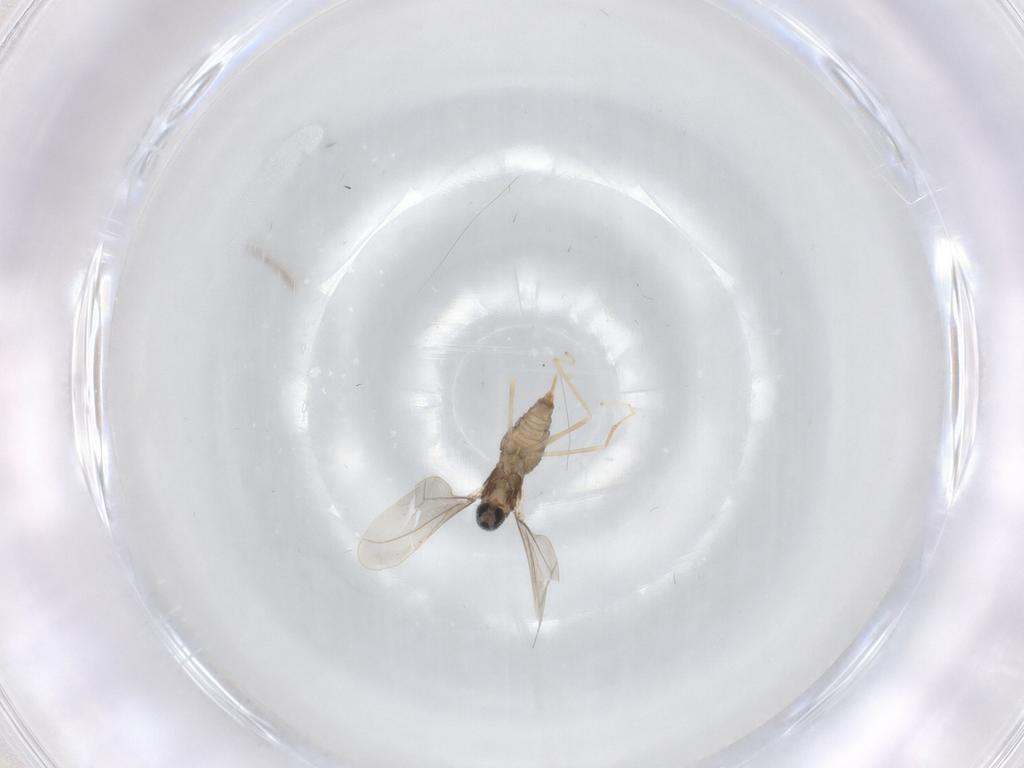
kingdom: Animalia
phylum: Arthropoda
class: Insecta
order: Diptera
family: Cecidomyiidae
